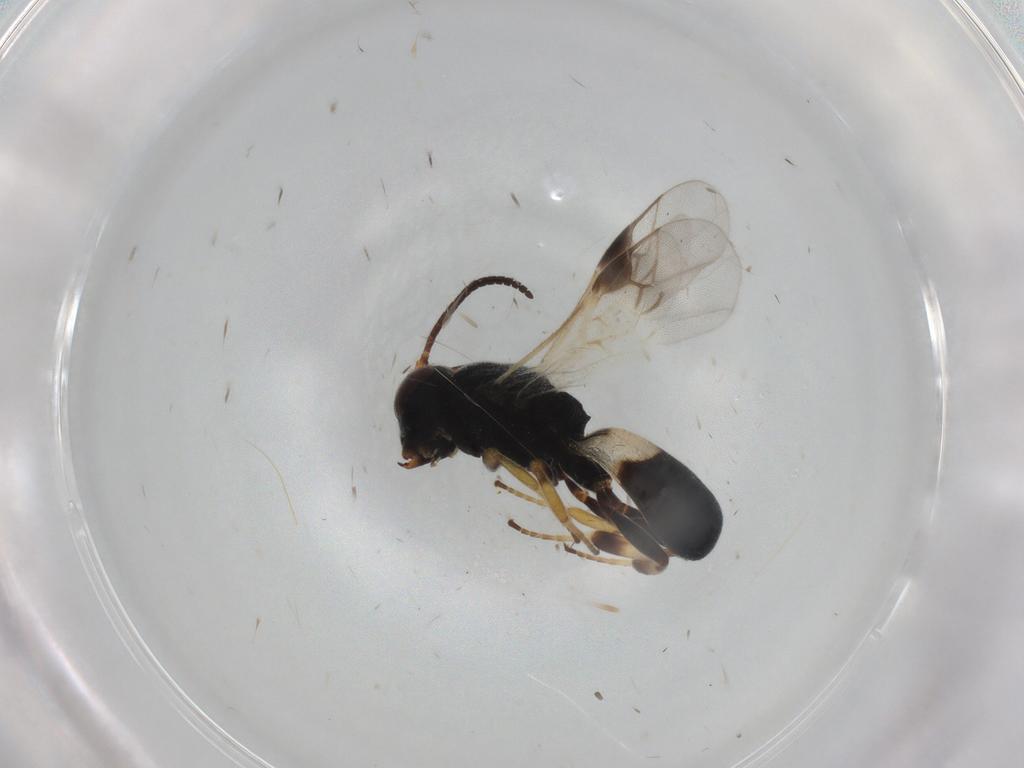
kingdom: Animalia
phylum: Arthropoda
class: Insecta
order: Hymenoptera
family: Braconidae
